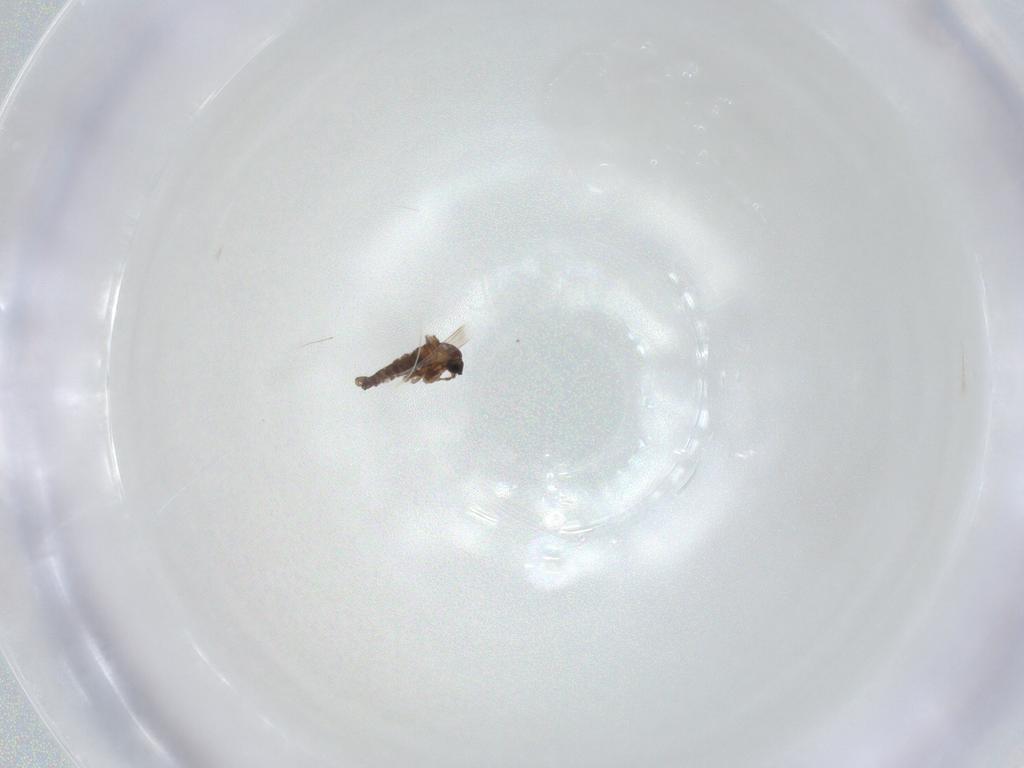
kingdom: Animalia
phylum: Arthropoda
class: Insecta
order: Diptera
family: Cecidomyiidae
